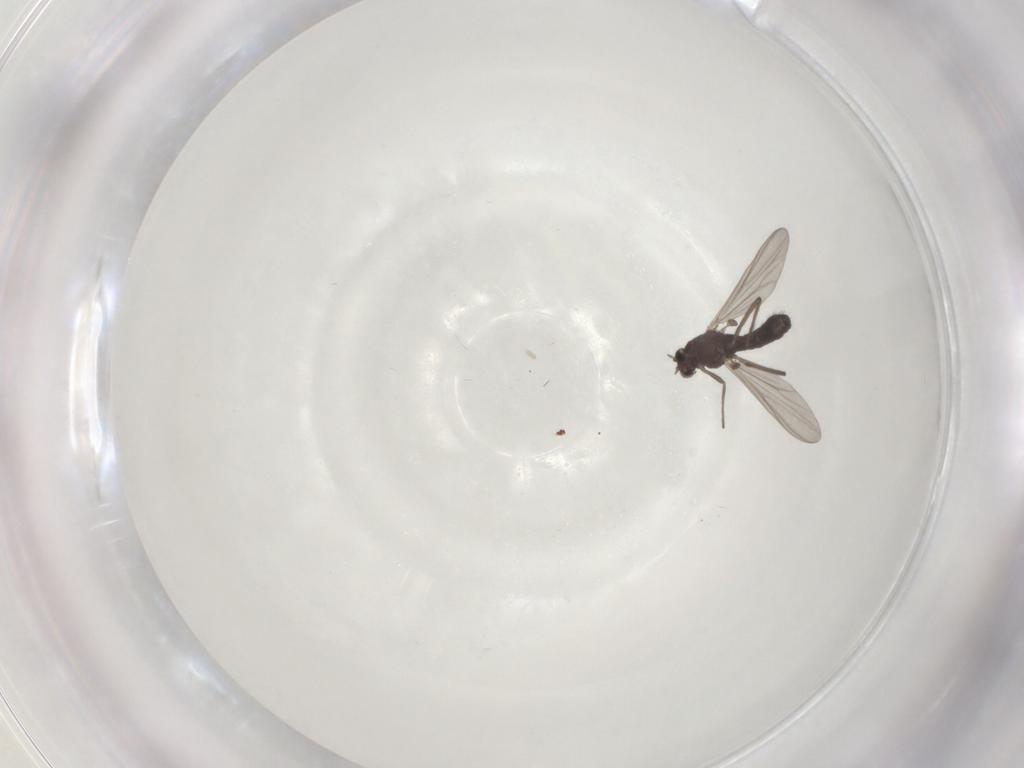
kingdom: Animalia
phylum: Arthropoda
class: Insecta
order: Diptera
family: Chironomidae
